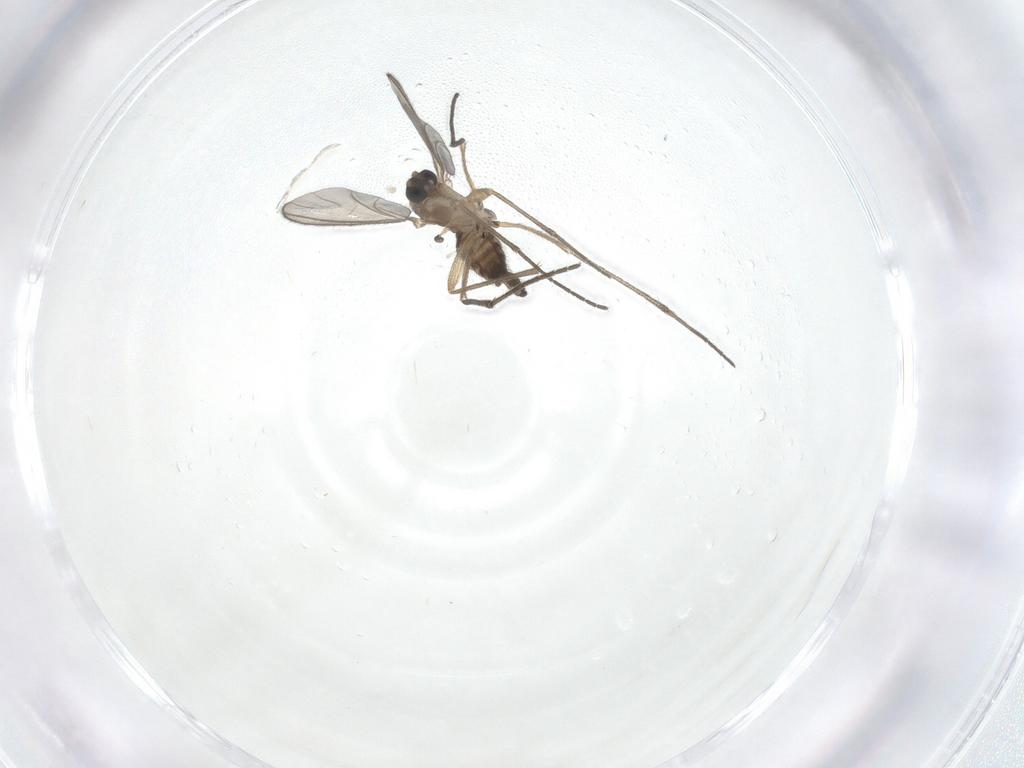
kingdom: Animalia
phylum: Arthropoda
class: Insecta
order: Diptera
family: Sciaridae
